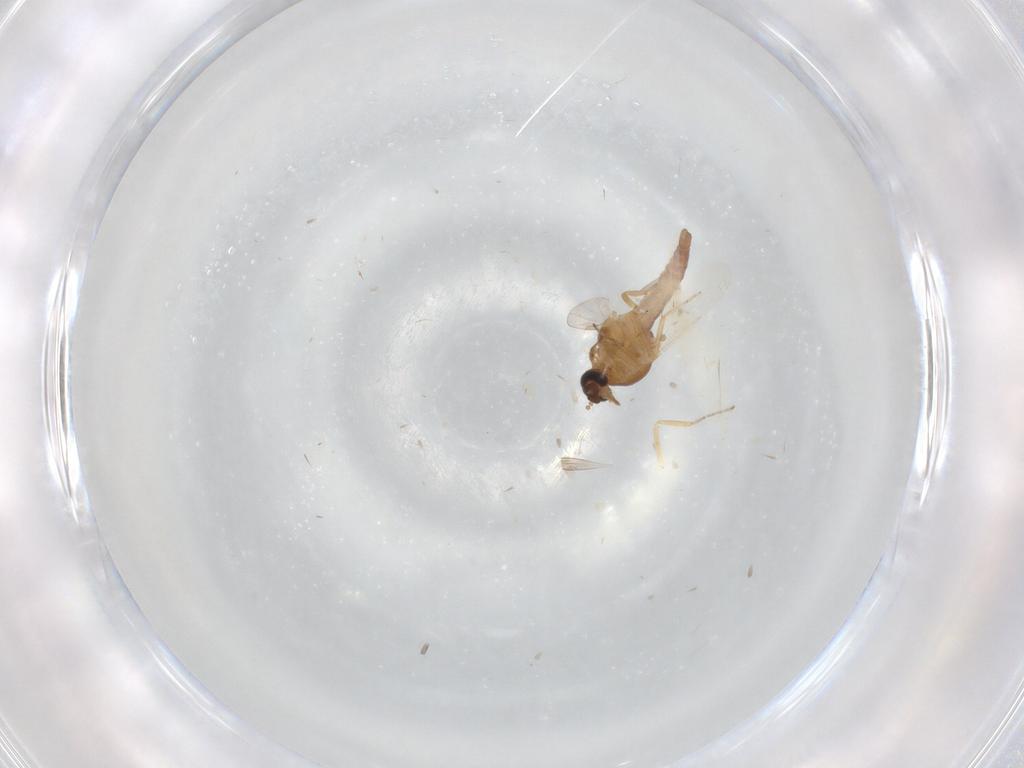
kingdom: Animalia
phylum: Arthropoda
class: Insecta
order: Diptera
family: Ceratopogonidae
